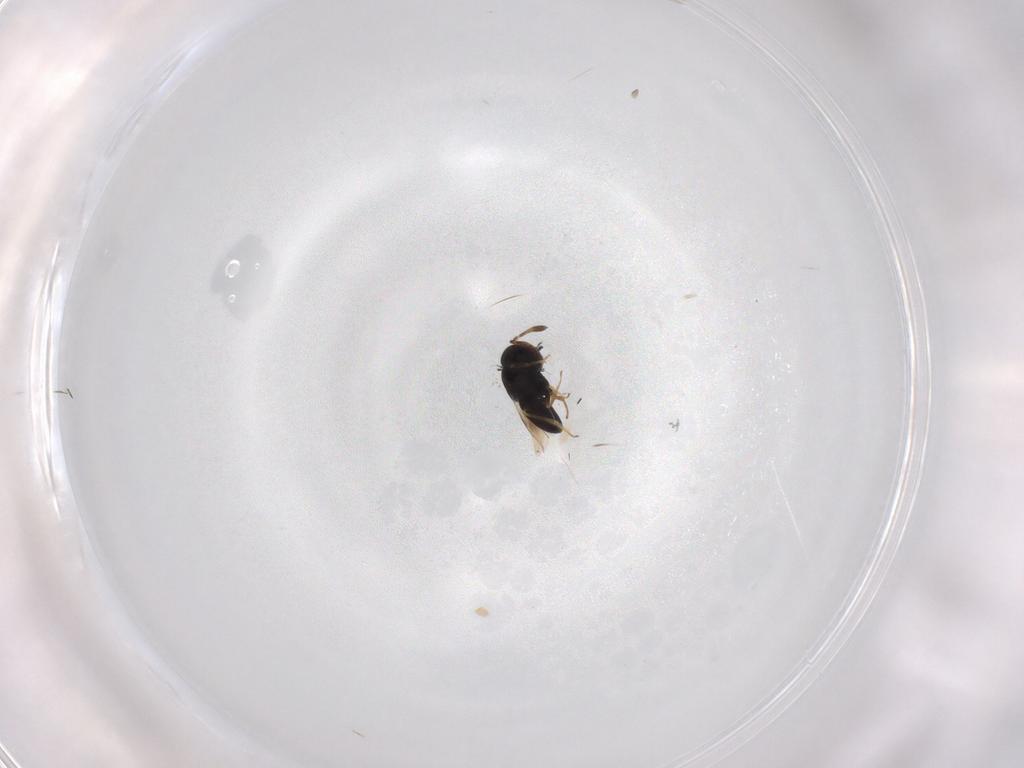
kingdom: Animalia
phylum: Arthropoda
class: Insecta
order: Hymenoptera
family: Scelionidae
